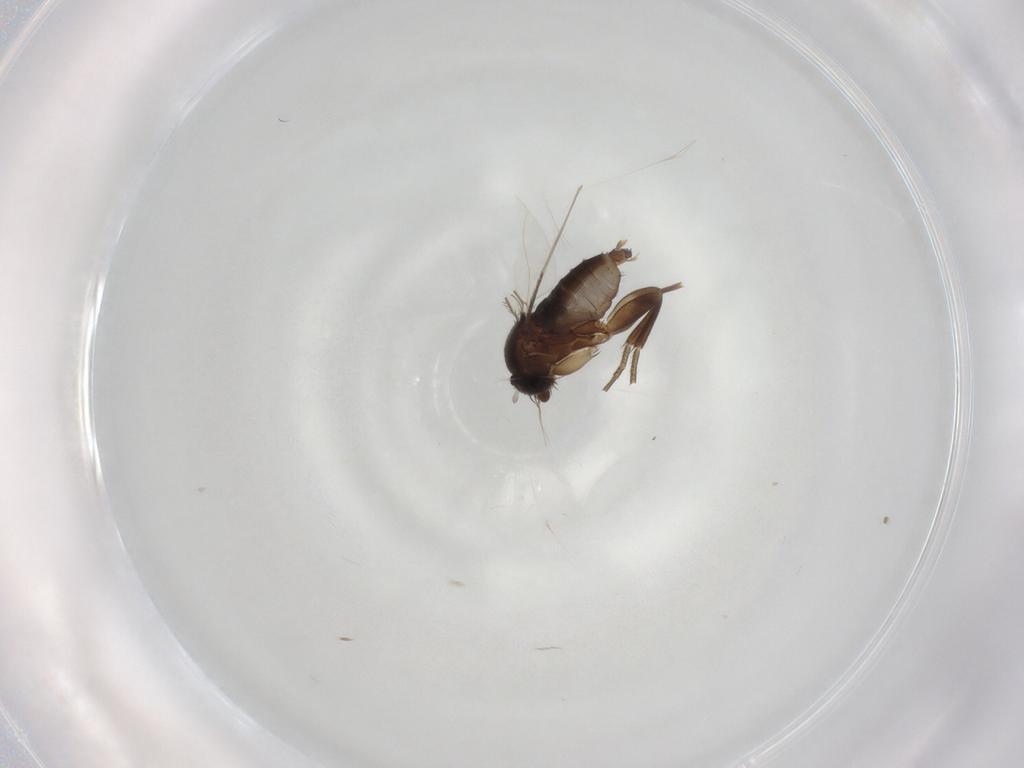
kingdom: Animalia
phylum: Arthropoda
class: Insecta
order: Diptera
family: Phoridae
